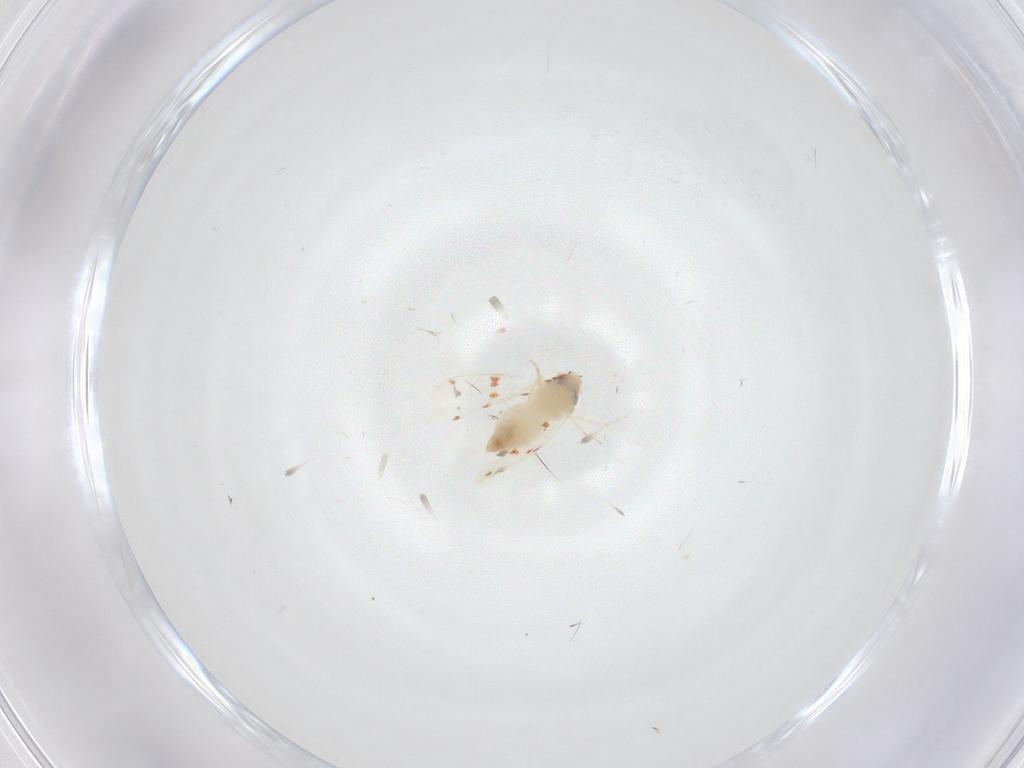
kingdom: Animalia
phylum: Arthropoda
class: Insecta
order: Hemiptera
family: Aleyrodidae
